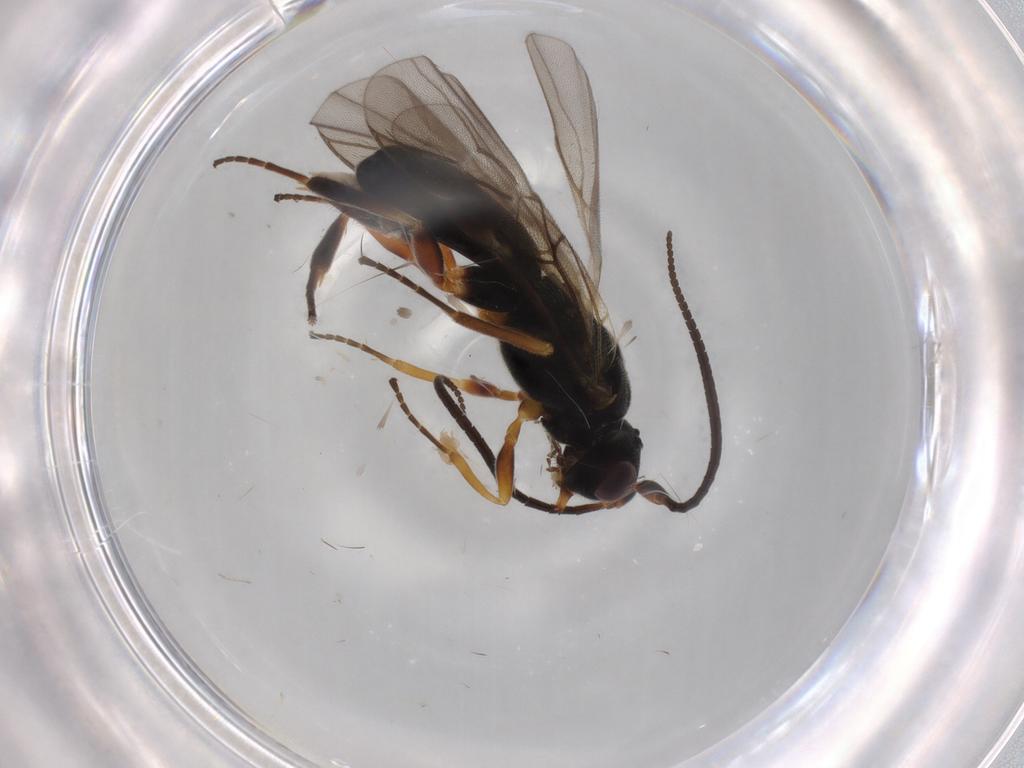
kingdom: Animalia
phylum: Arthropoda
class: Insecta
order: Hymenoptera
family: Braconidae
